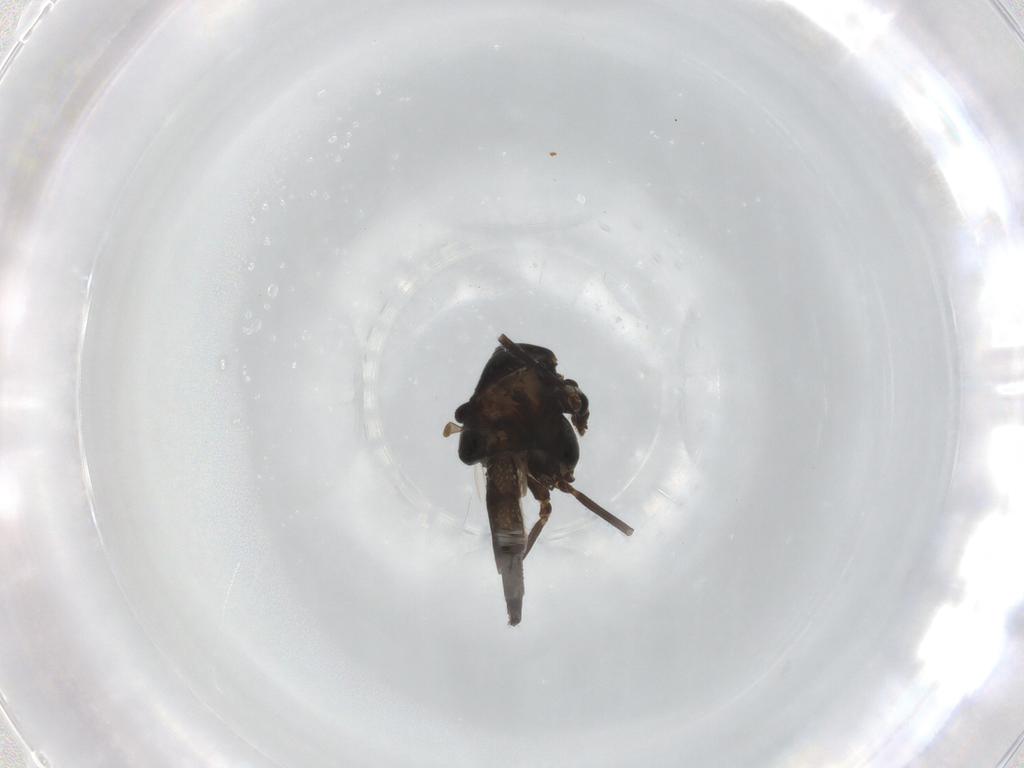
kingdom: Animalia
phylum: Arthropoda
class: Insecta
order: Diptera
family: Chironomidae
